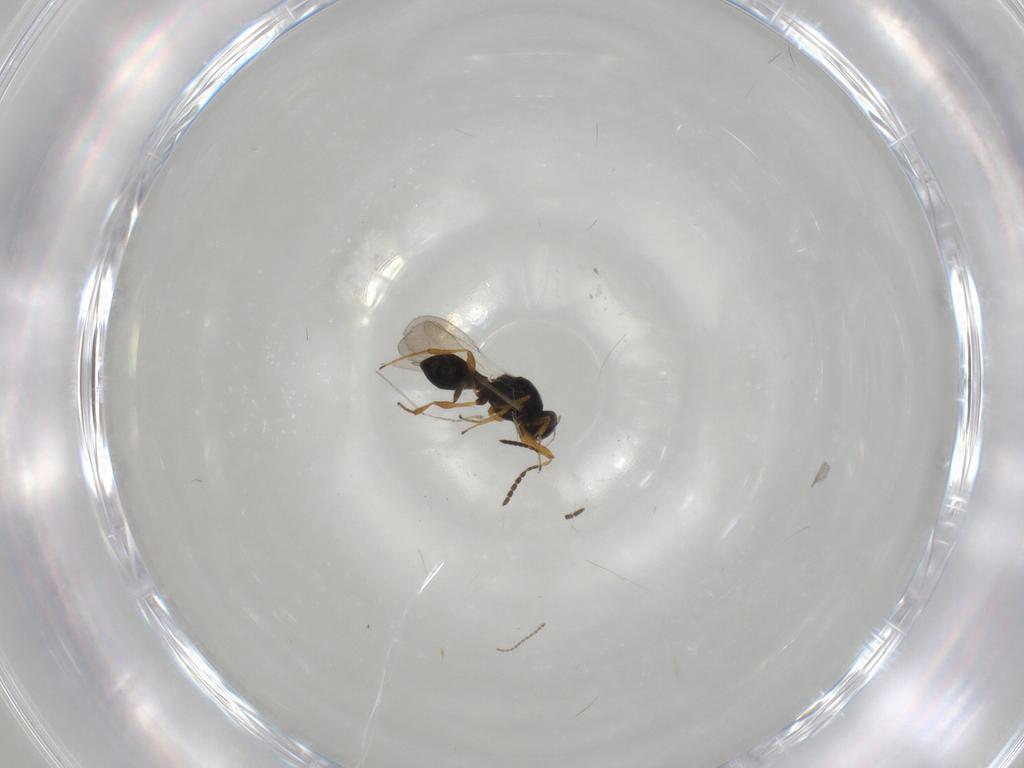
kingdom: Animalia
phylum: Arthropoda
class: Insecta
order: Hymenoptera
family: Platygastridae
